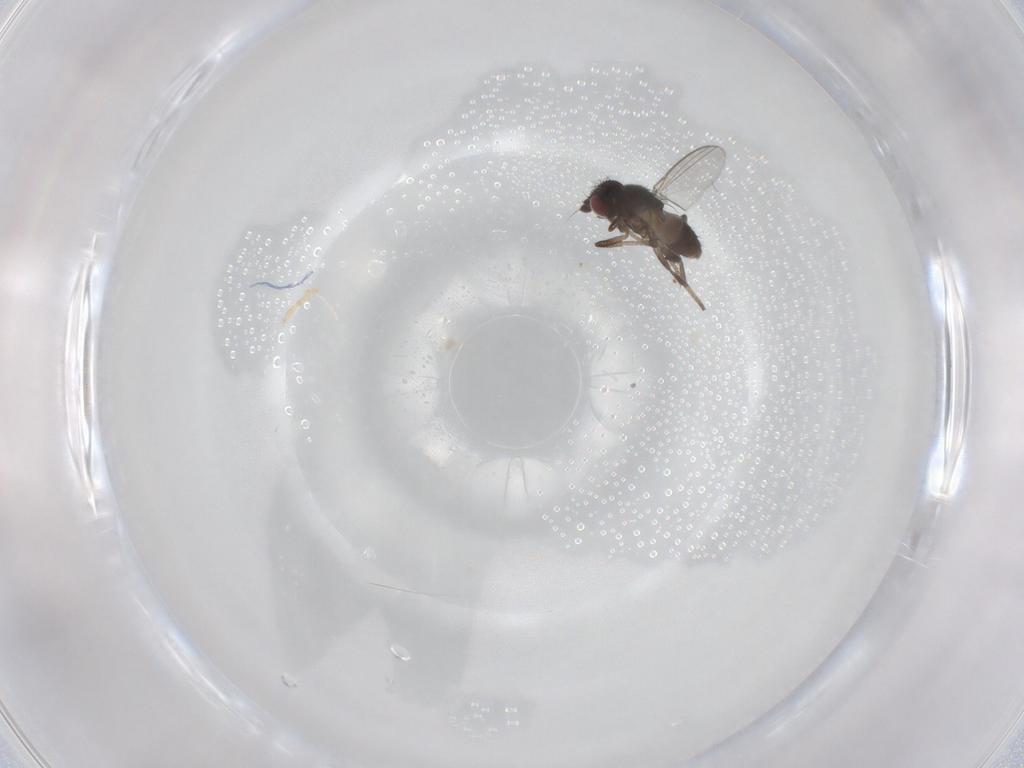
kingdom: Animalia
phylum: Arthropoda
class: Insecta
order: Diptera
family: Milichiidae
